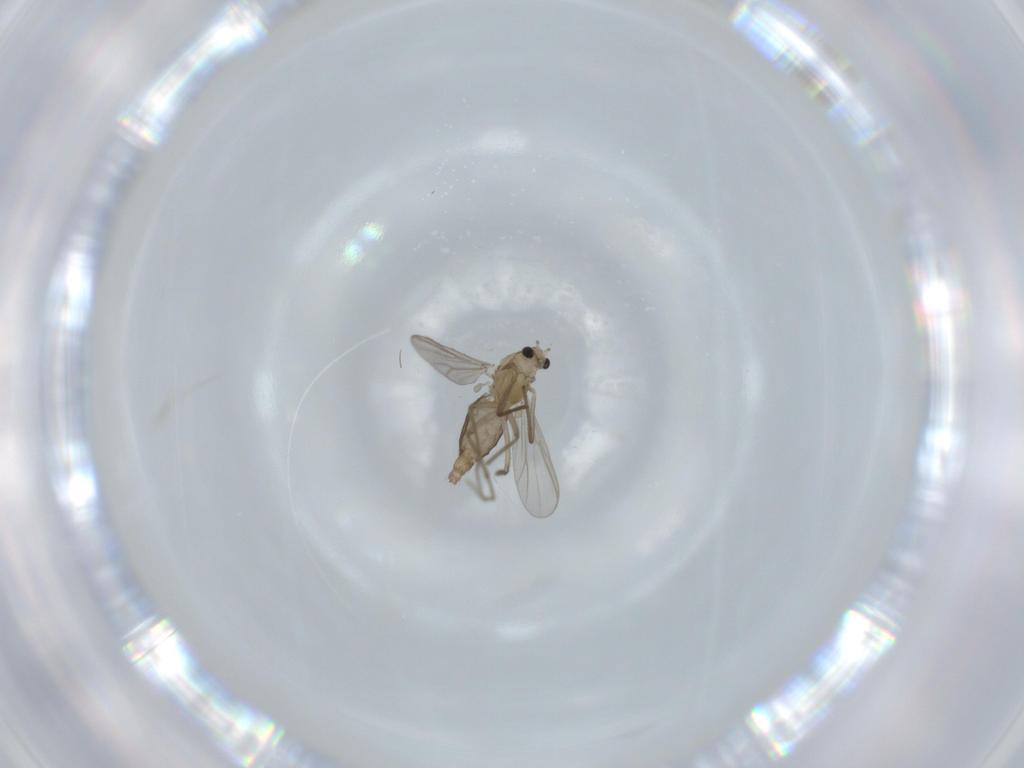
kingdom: Animalia
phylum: Arthropoda
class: Insecta
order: Diptera
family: Chironomidae
